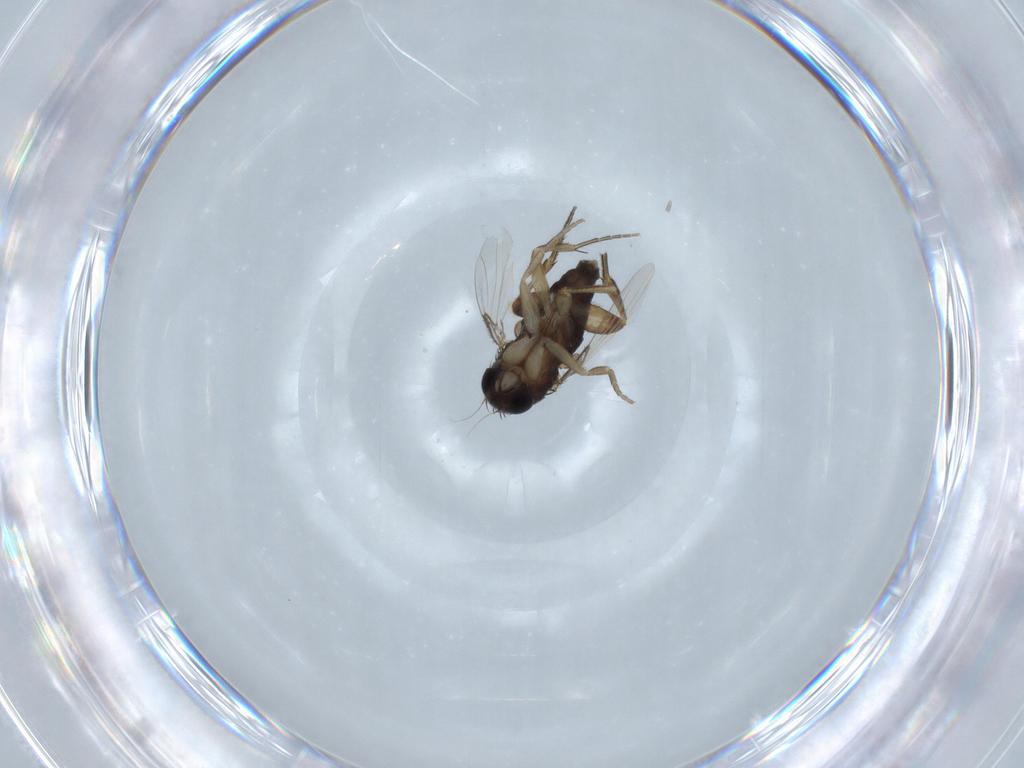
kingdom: Animalia
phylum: Arthropoda
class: Insecta
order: Diptera
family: Phoridae
